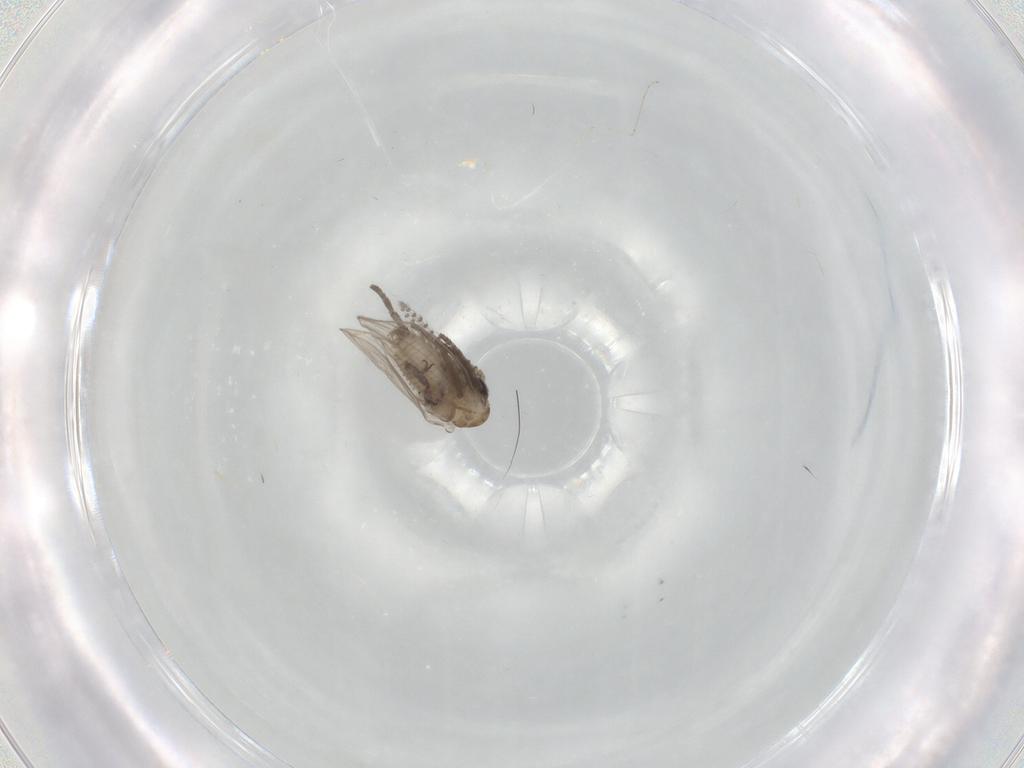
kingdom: Animalia
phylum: Arthropoda
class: Insecta
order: Diptera
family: Psychodidae
